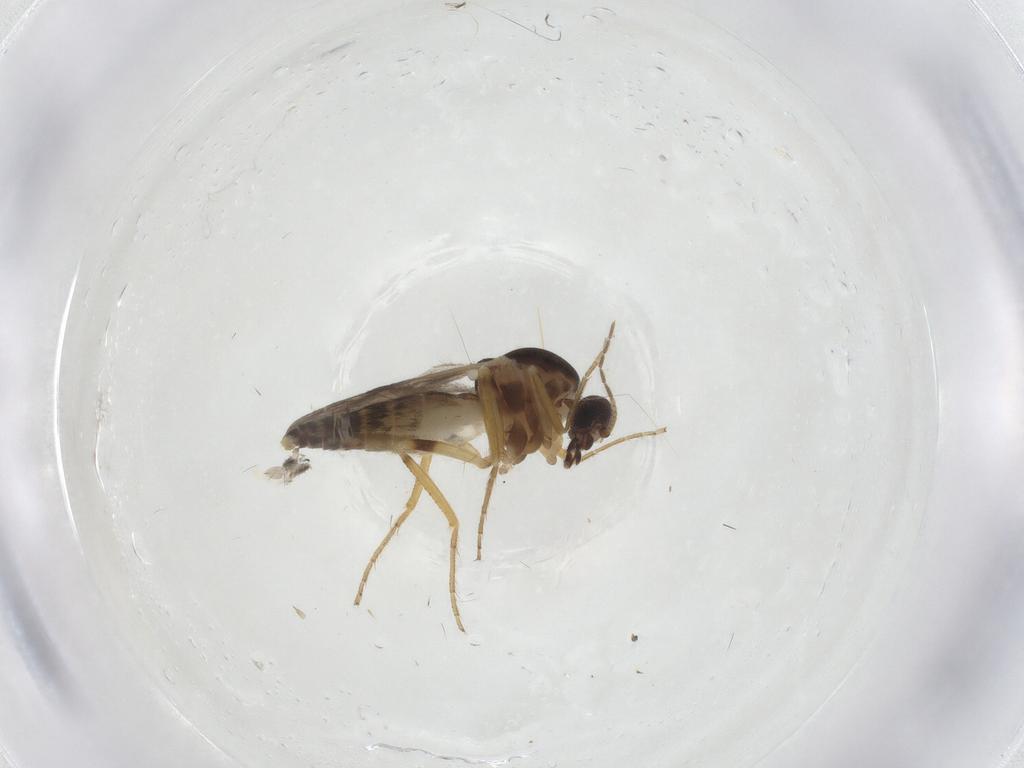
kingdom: Animalia
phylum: Arthropoda
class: Insecta
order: Diptera
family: Ceratopogonidae
